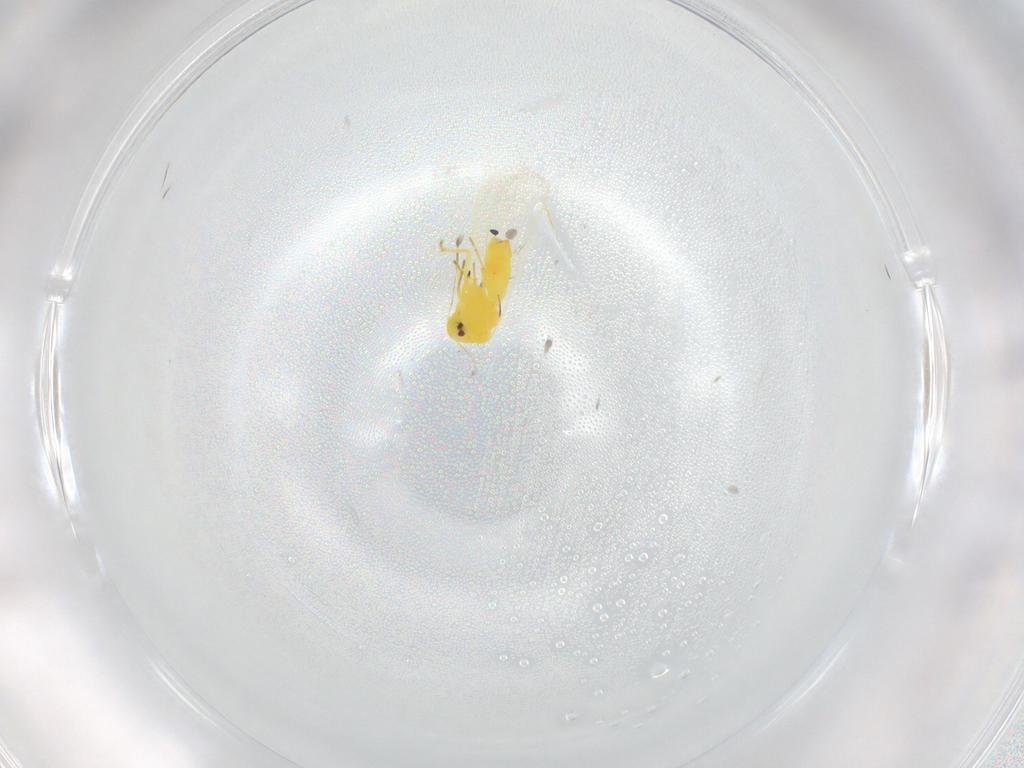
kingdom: Animalia
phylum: Arthropoda
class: Insecta
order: Hemiptera
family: Aleyrodidae
